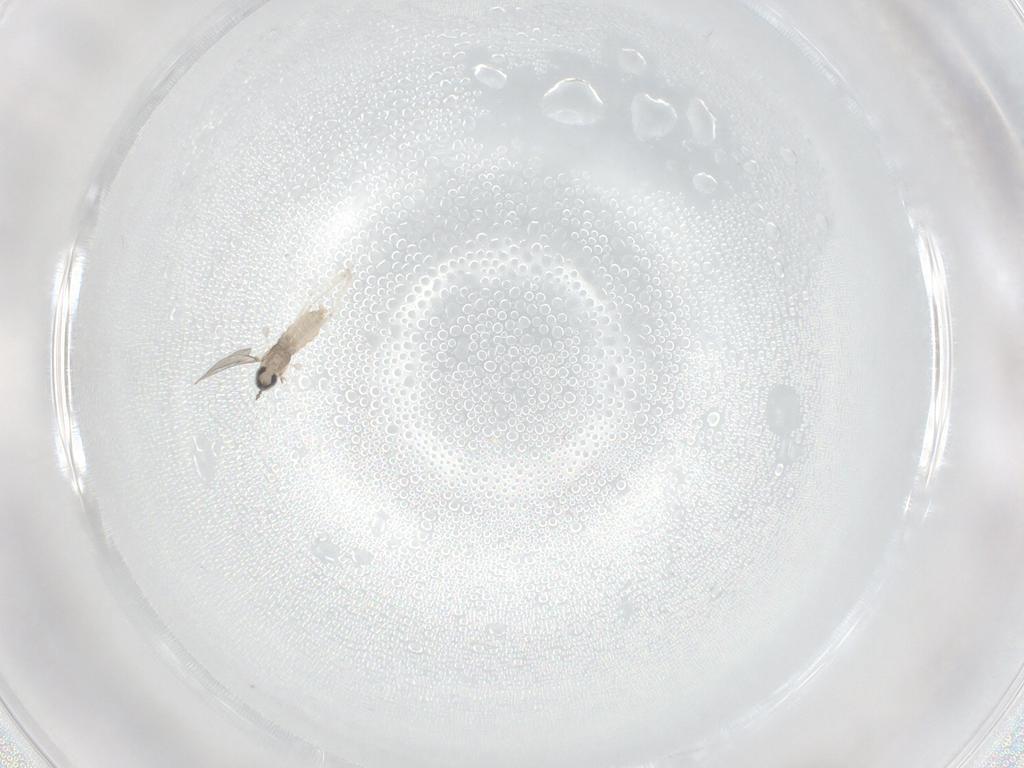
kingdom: Animalia
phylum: Arthropoda
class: Insecta
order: Diptera
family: Cecidomyiidae
